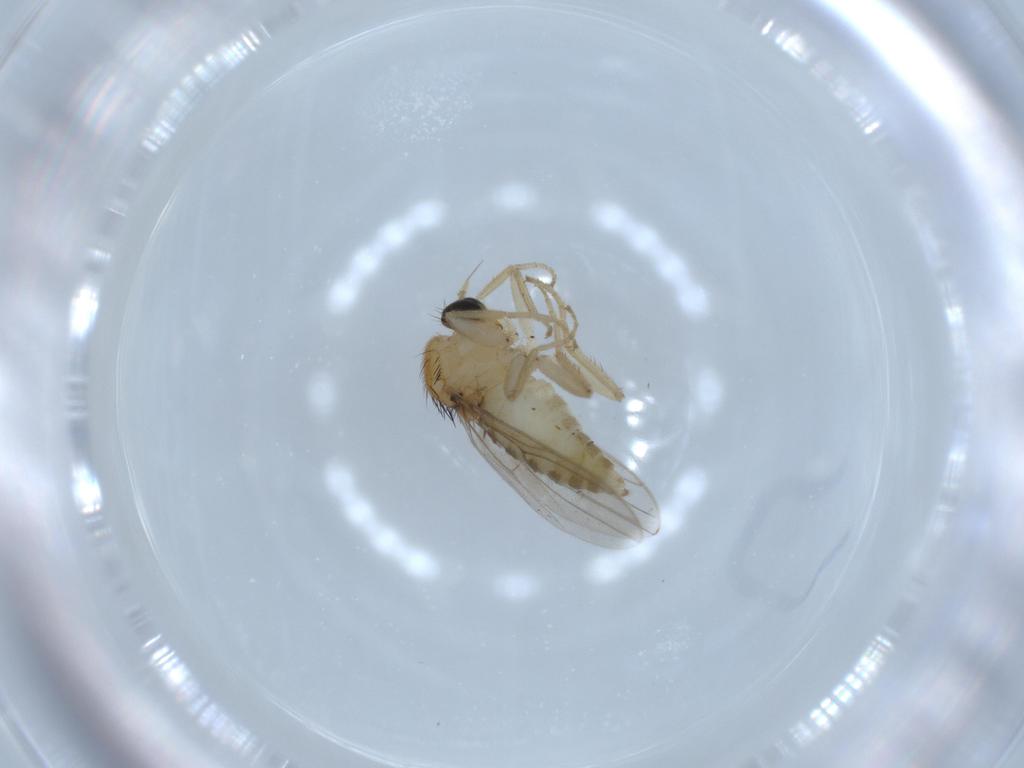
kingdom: Animalia
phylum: Arthropoda
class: Insecta
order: Diptera
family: Hybotidae
